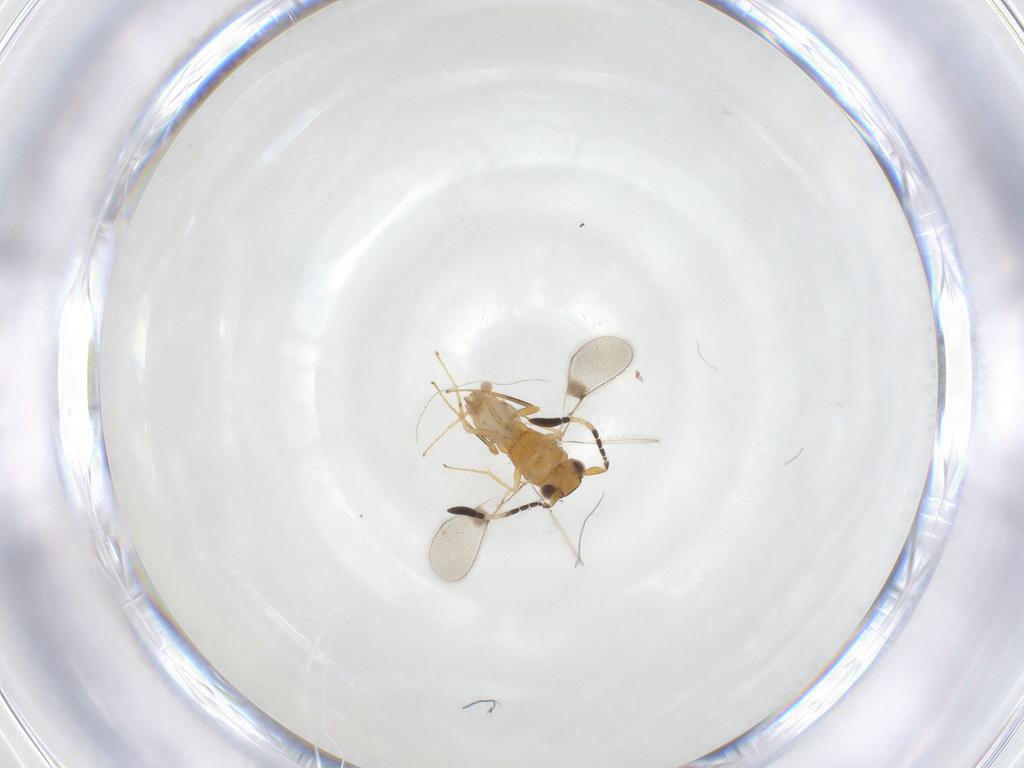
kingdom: Animalia
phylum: Arthropoda
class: Insecta
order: Hymenoptera
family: Vespidae
